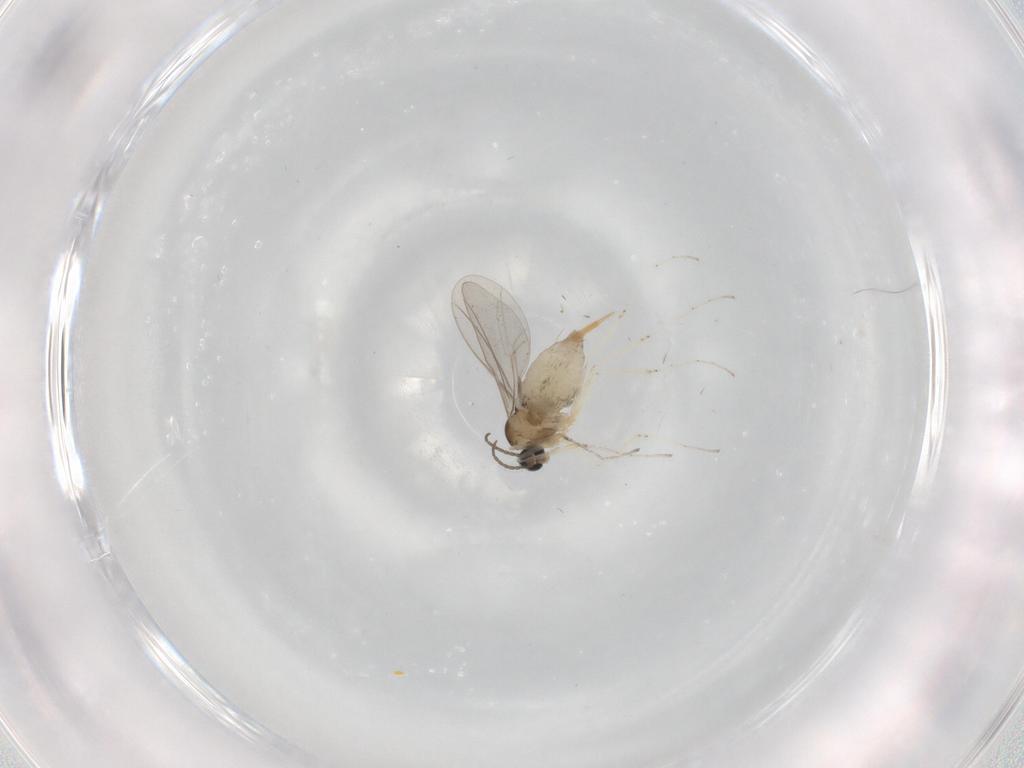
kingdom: Animalia
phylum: Arthropoda
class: Insecta
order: Diptera
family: Cecidomyiidae
